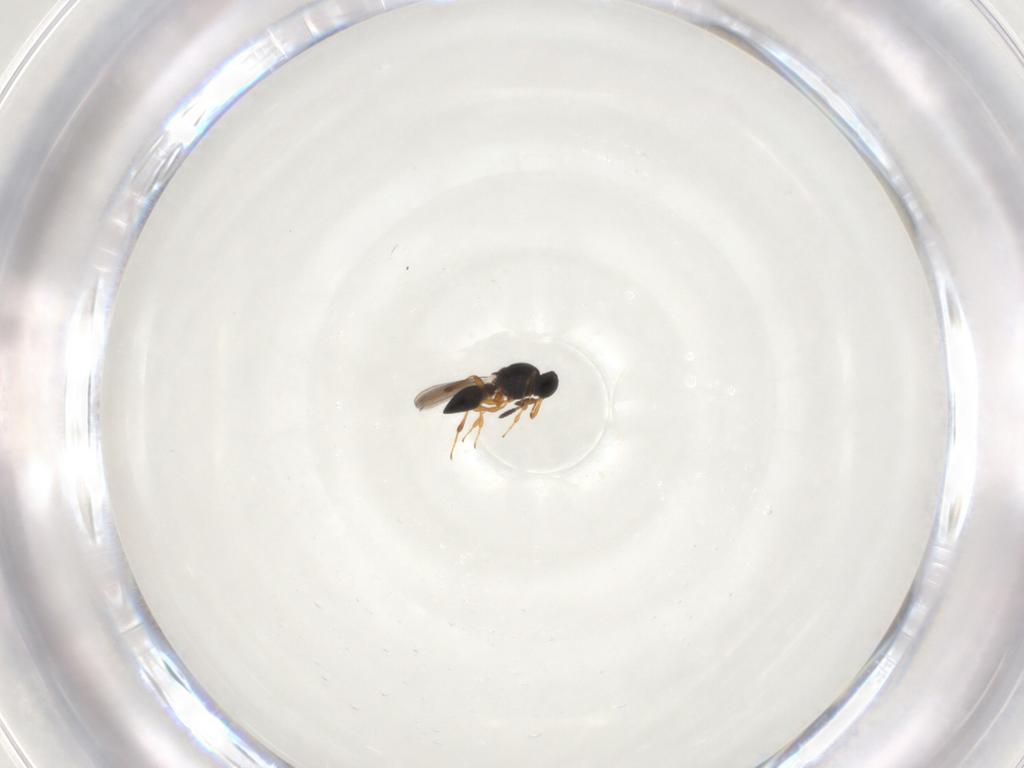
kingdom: Animalia
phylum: Arthropoda
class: Insecta
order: Hymenoptera
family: Platygastridae
